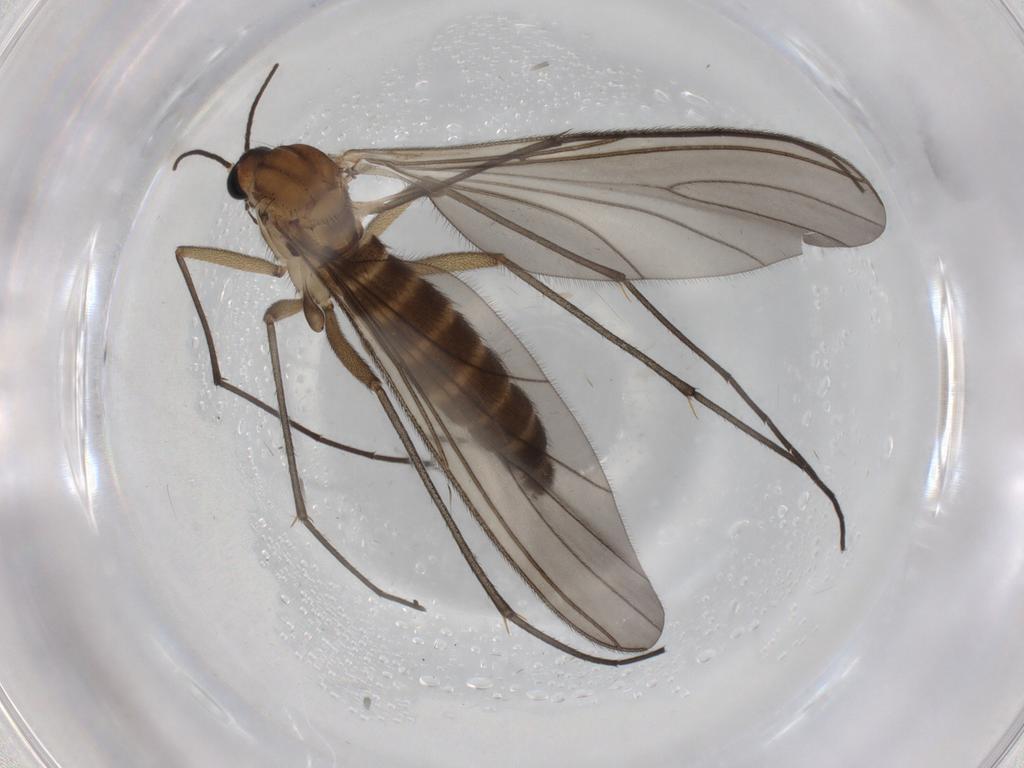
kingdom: Animalia
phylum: Arthropoda
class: Insecta
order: Diptera
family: Sciaridae
